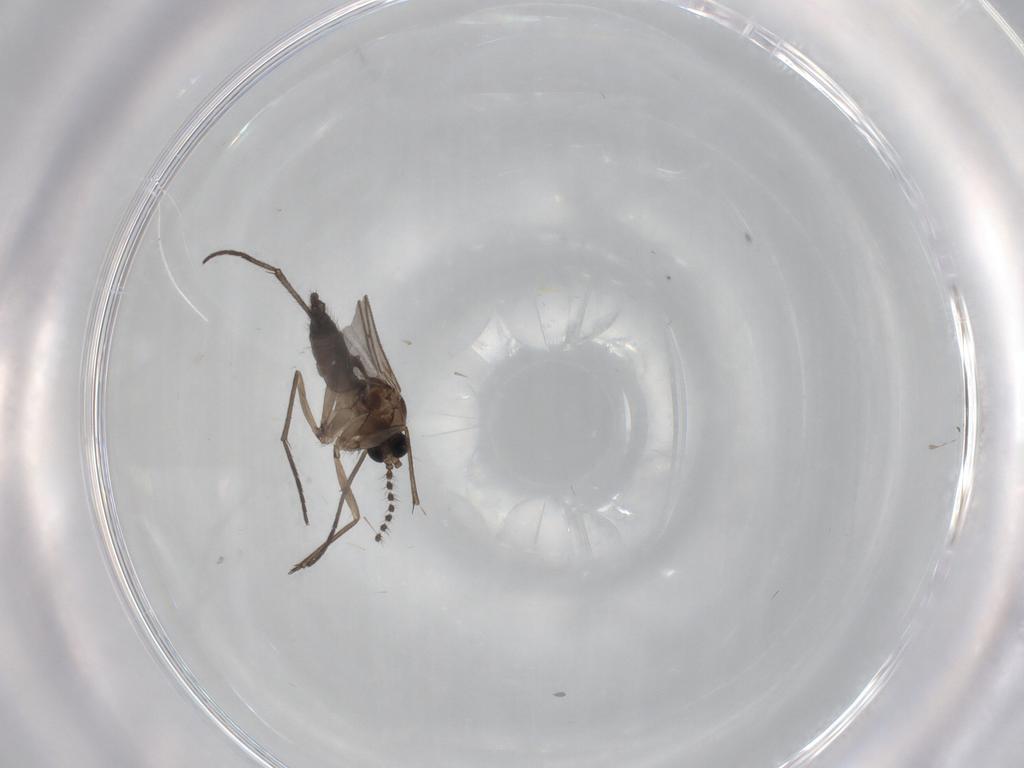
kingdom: Animalia
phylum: Arthropoda
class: Insecta
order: Diptera
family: Sciaridae
